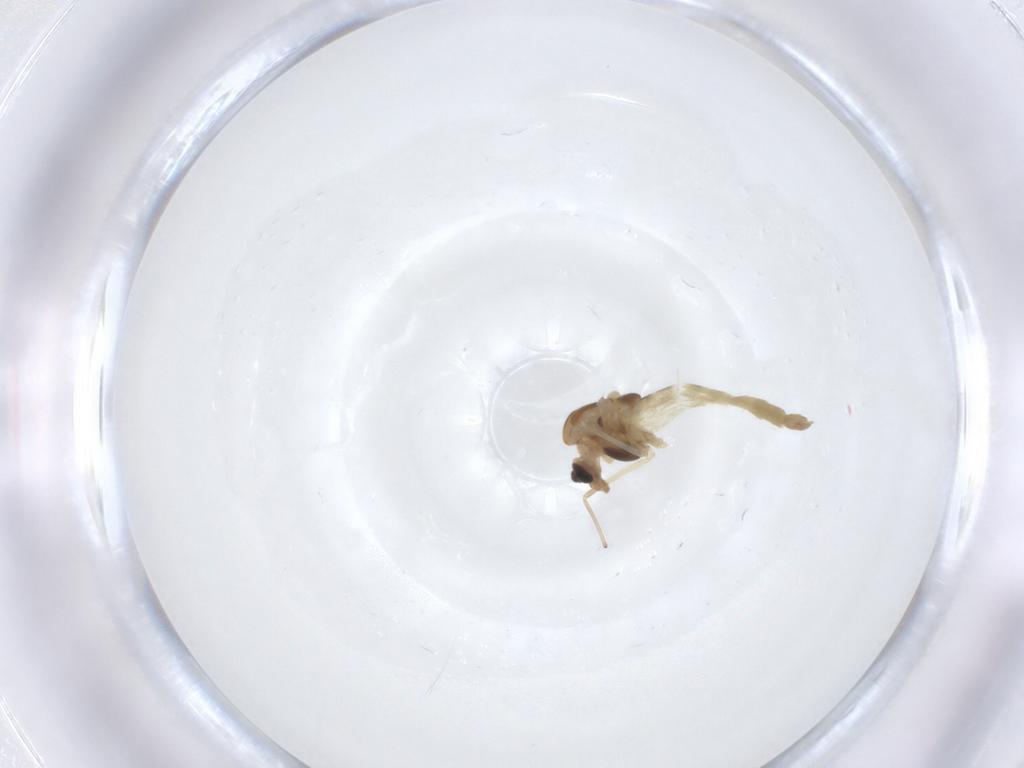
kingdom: Animalia
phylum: Arthropoda
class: Insecta
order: Diptera
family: Chironomidae
